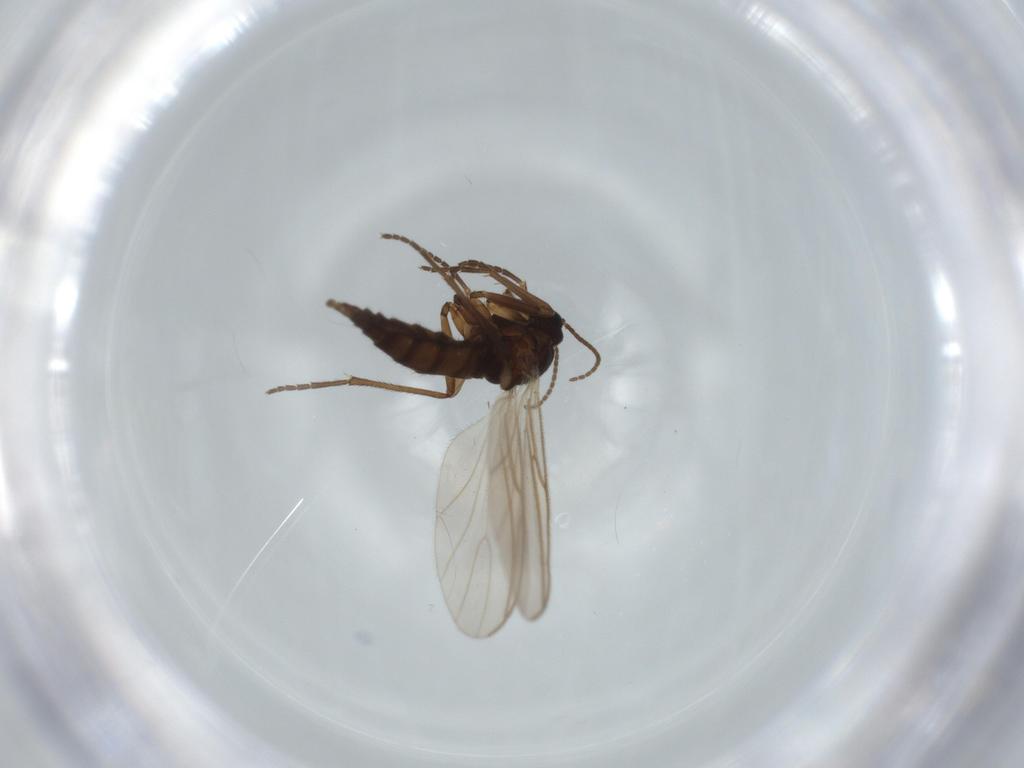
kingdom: Animalia
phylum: Arthropoda
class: Insecta
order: Diptera
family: Sciaridae
